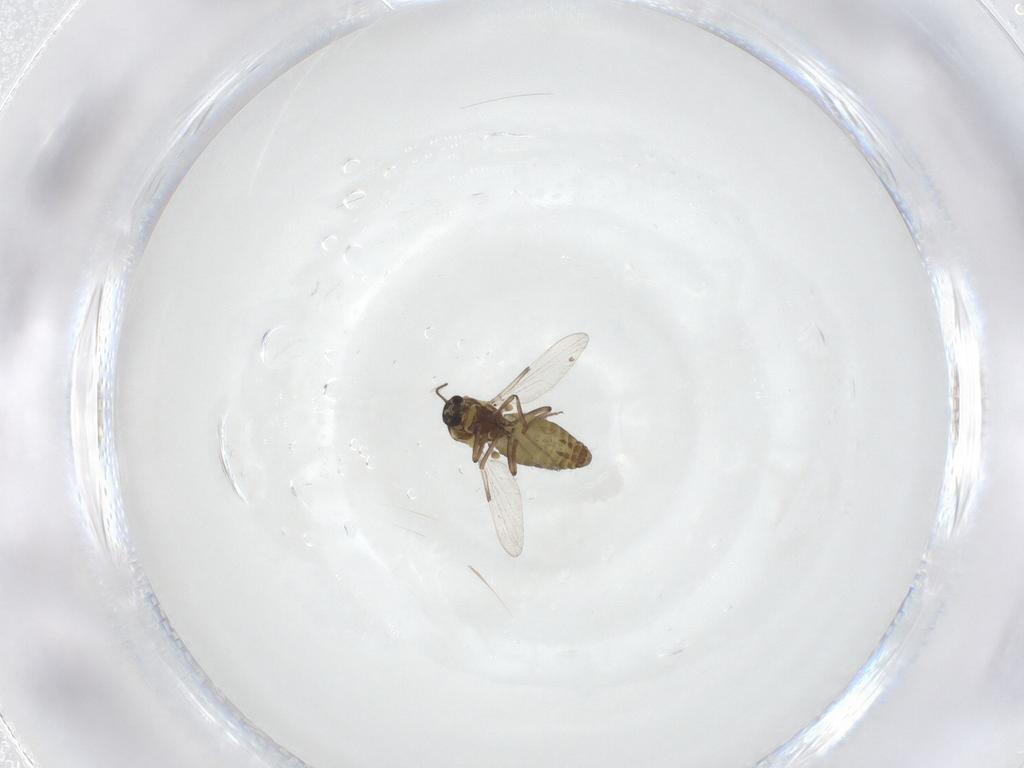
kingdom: Animalia
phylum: Arthropoda
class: Insecta
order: Diptera
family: Ceratopogonidae
